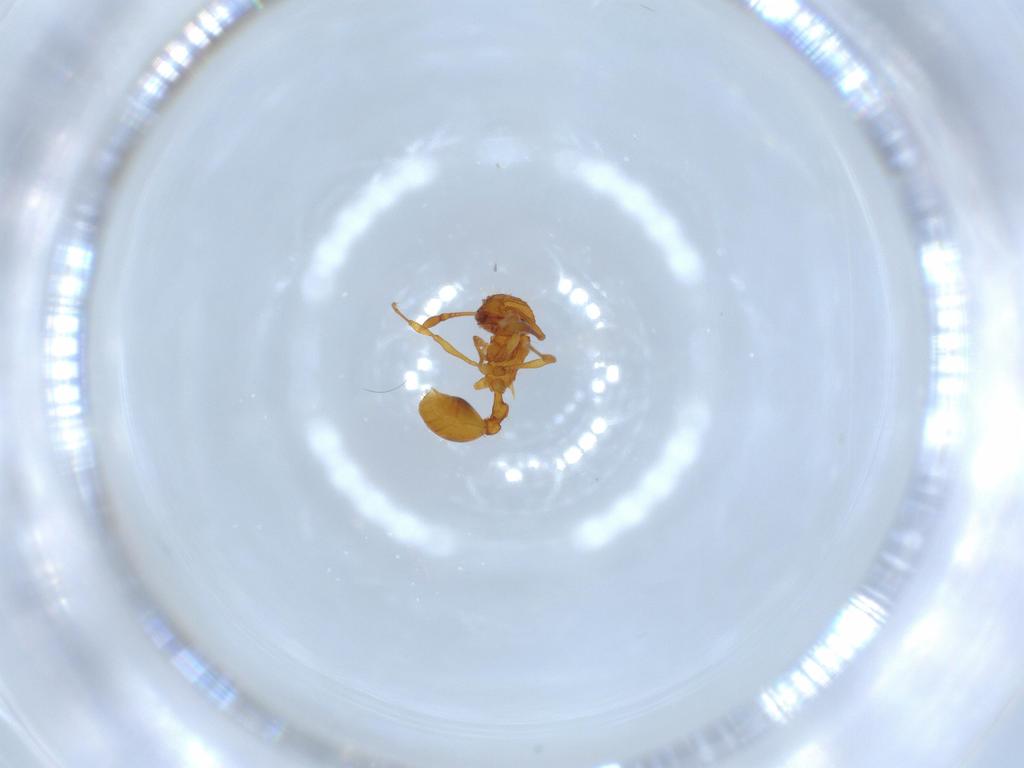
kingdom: Animalia
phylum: Arthropoda
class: Insecta
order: Hymenoptera
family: Formicidae
